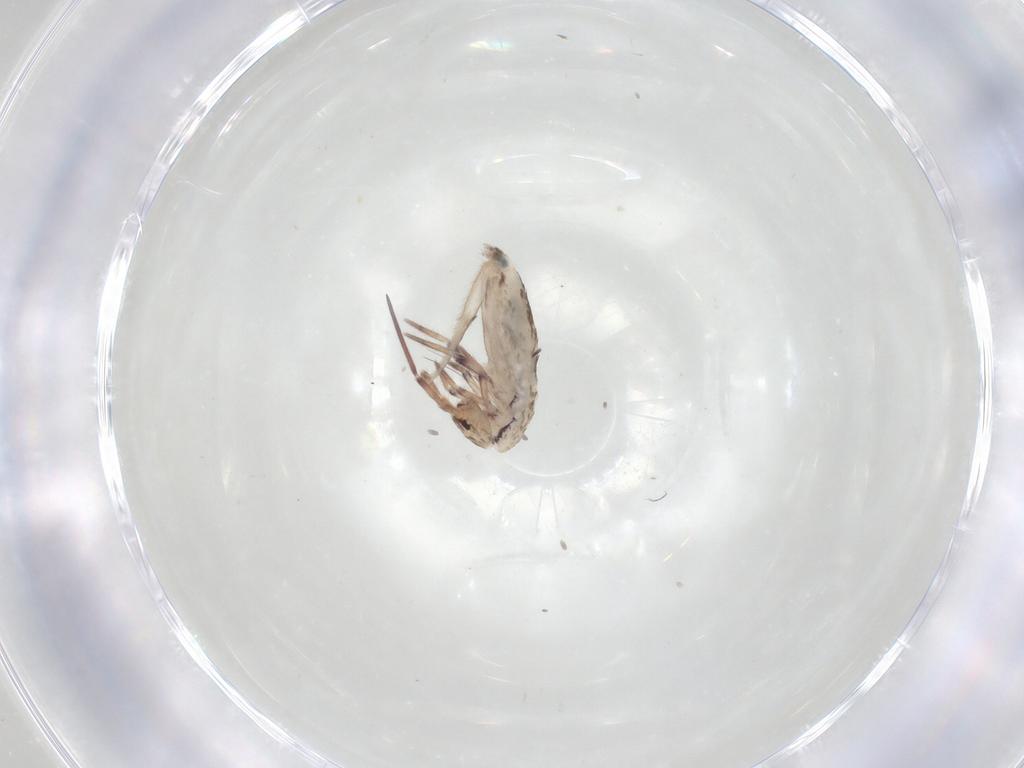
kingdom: Animalia
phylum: Arthropoda
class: Collembola
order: Entomobryomorpha
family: Entomobryidae
